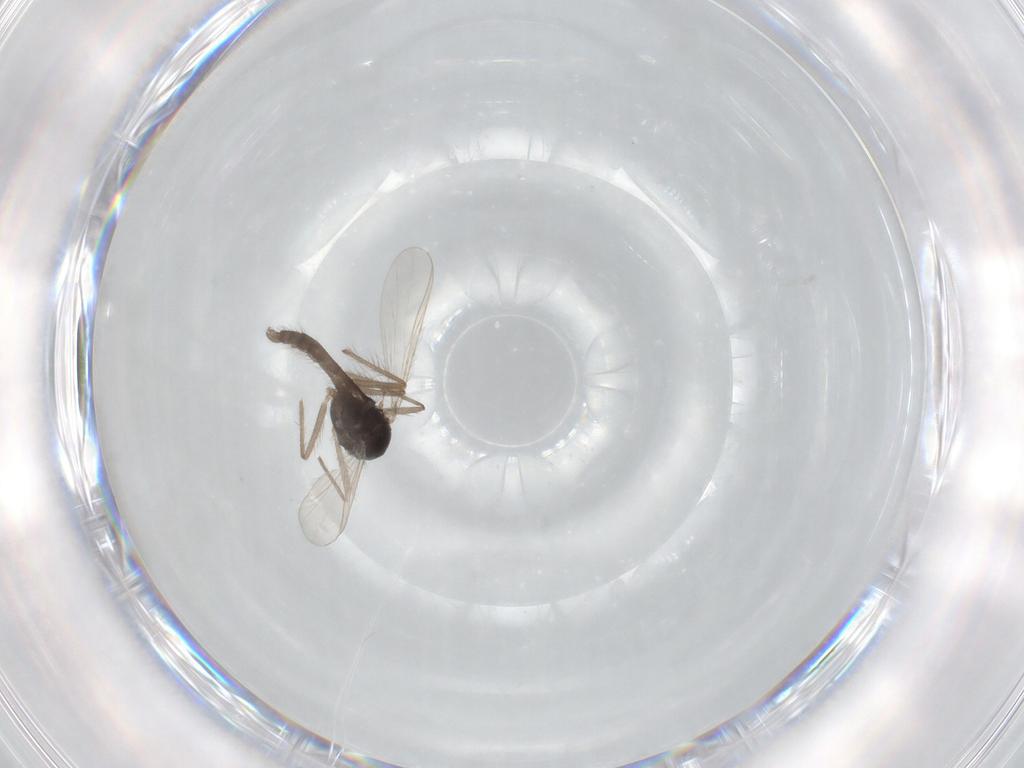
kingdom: Animalia
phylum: Arthropoda
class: Insecta
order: Diptera
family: Chironomidae
